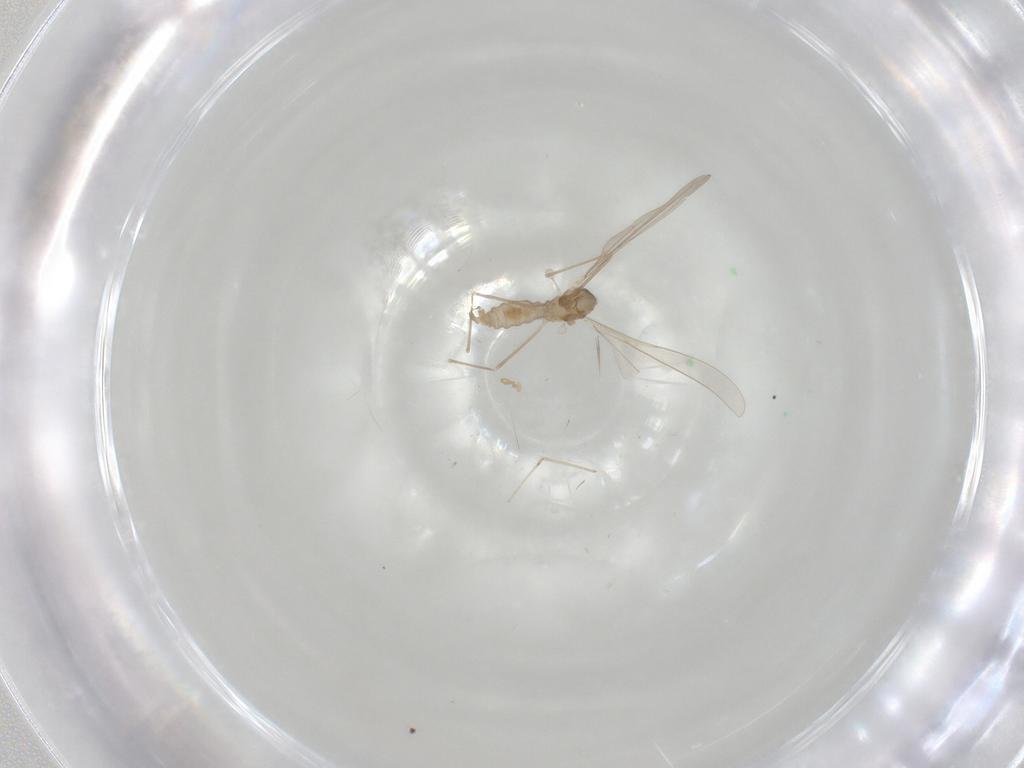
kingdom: Animalia
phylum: Arthropoda
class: Insecta
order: Diptera
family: Cecidomyiidae
